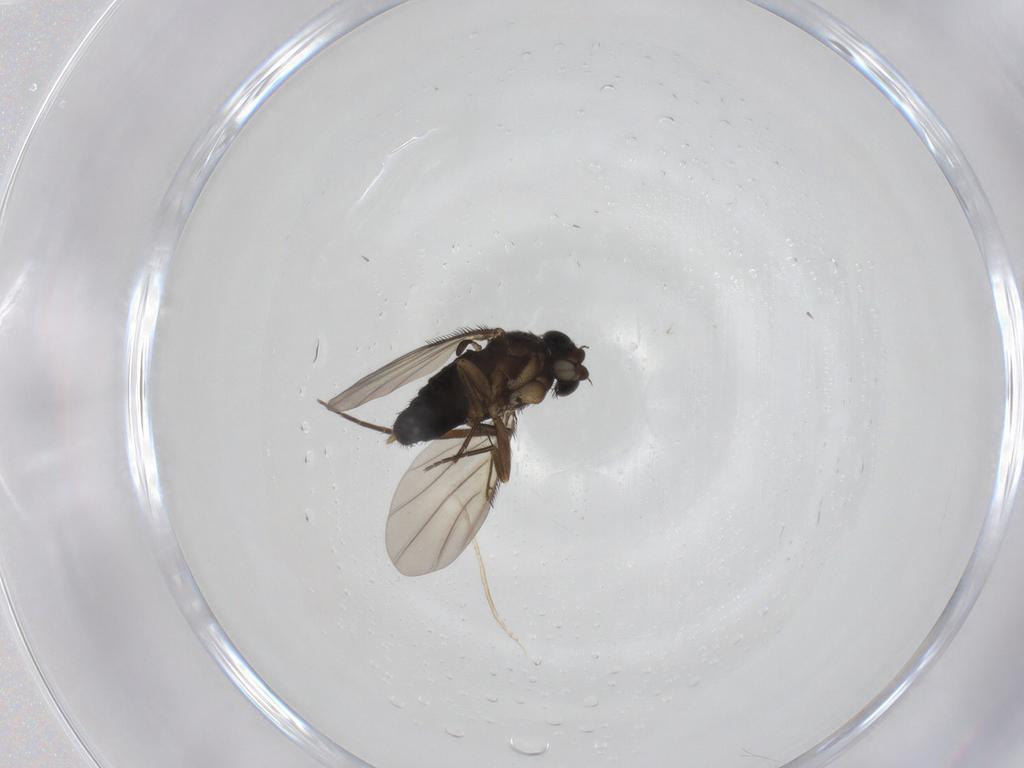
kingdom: Animalia
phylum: Arthropoda
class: Insecta
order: Diptera
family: Phoridae
